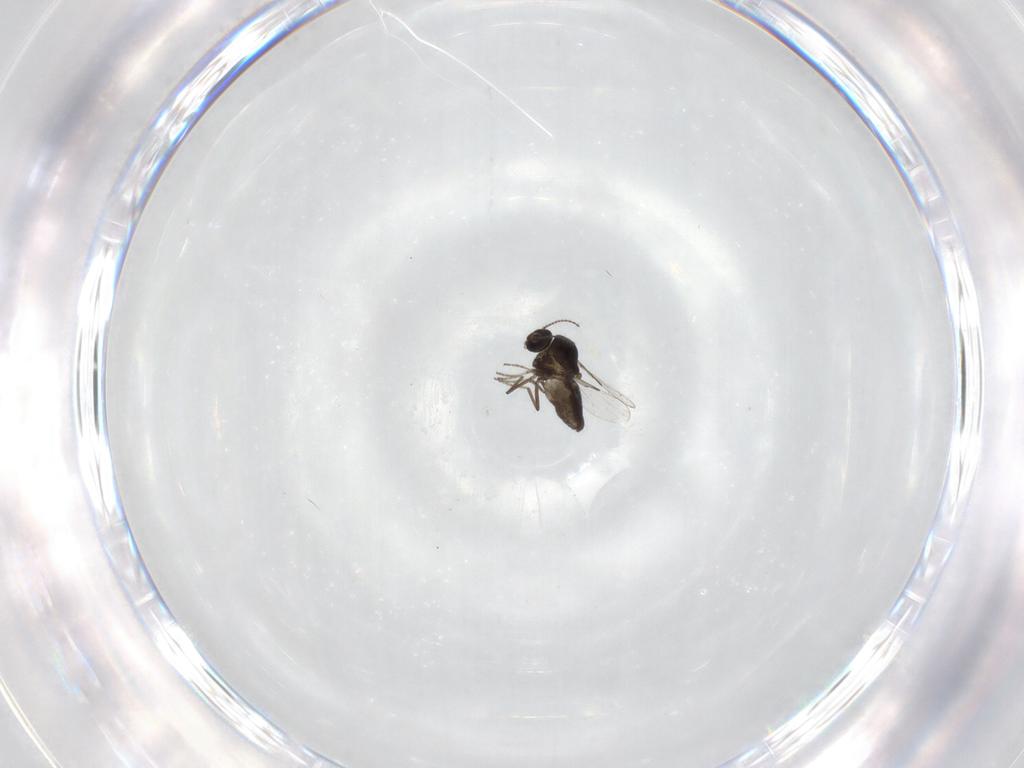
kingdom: Animalia
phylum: Arthropoda
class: Insecta
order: Diptera
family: Ceratopogonidae
